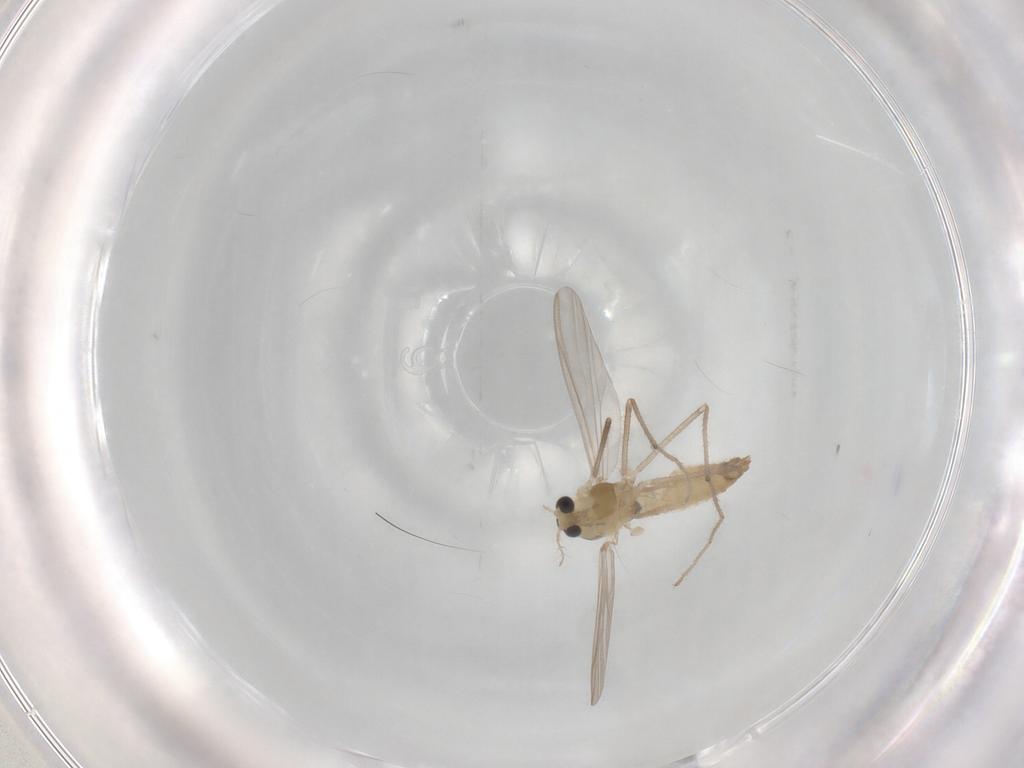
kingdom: Animalia
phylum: Arthropoda
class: Insecta
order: Diptera
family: Chironomidae
